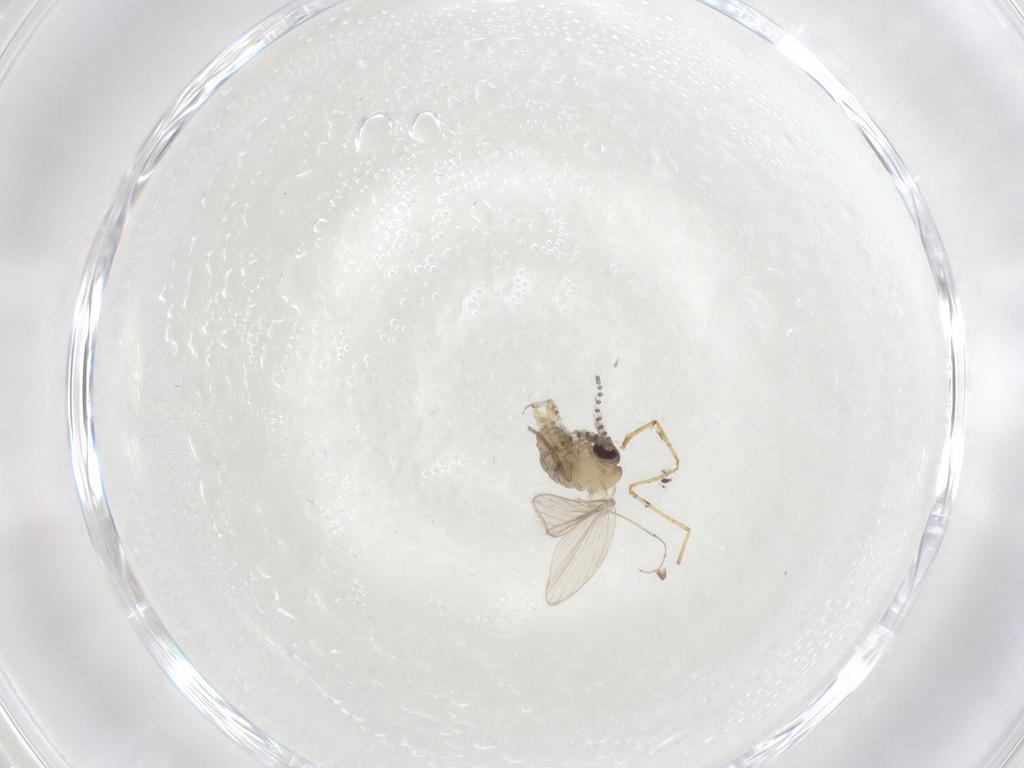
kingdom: Animalia
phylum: Arthropoda
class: Insecta
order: Diptera
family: Psychodidae
